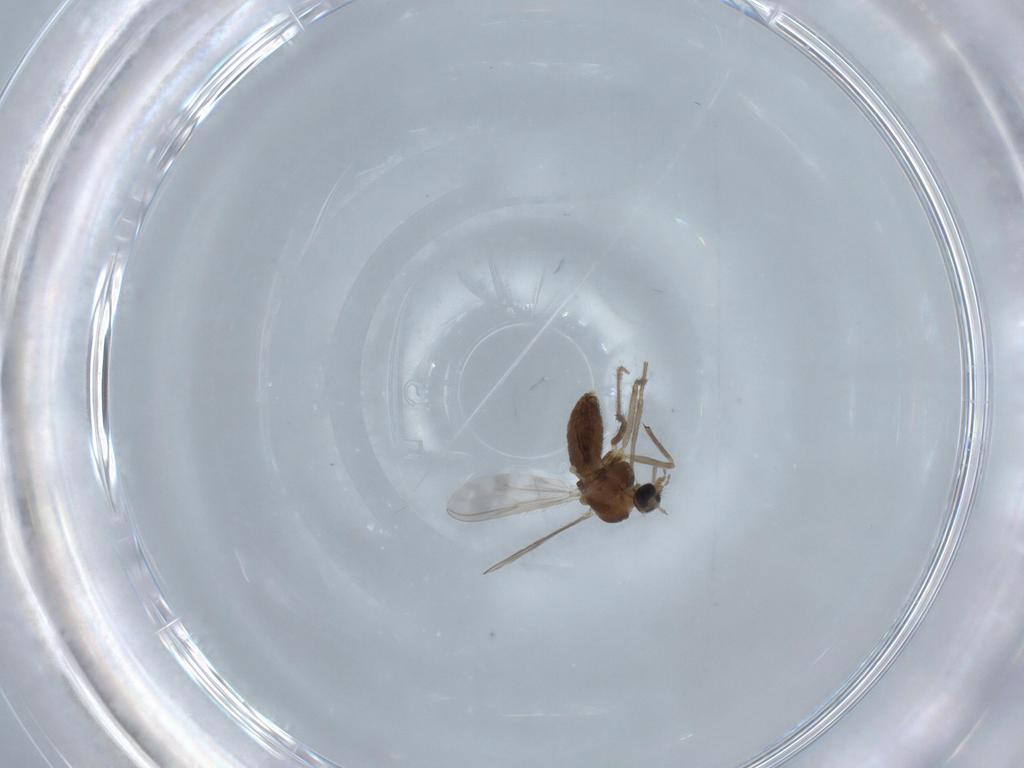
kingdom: Animalia
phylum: Arthropoda
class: Insecta
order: Diptera
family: Chironomidae
